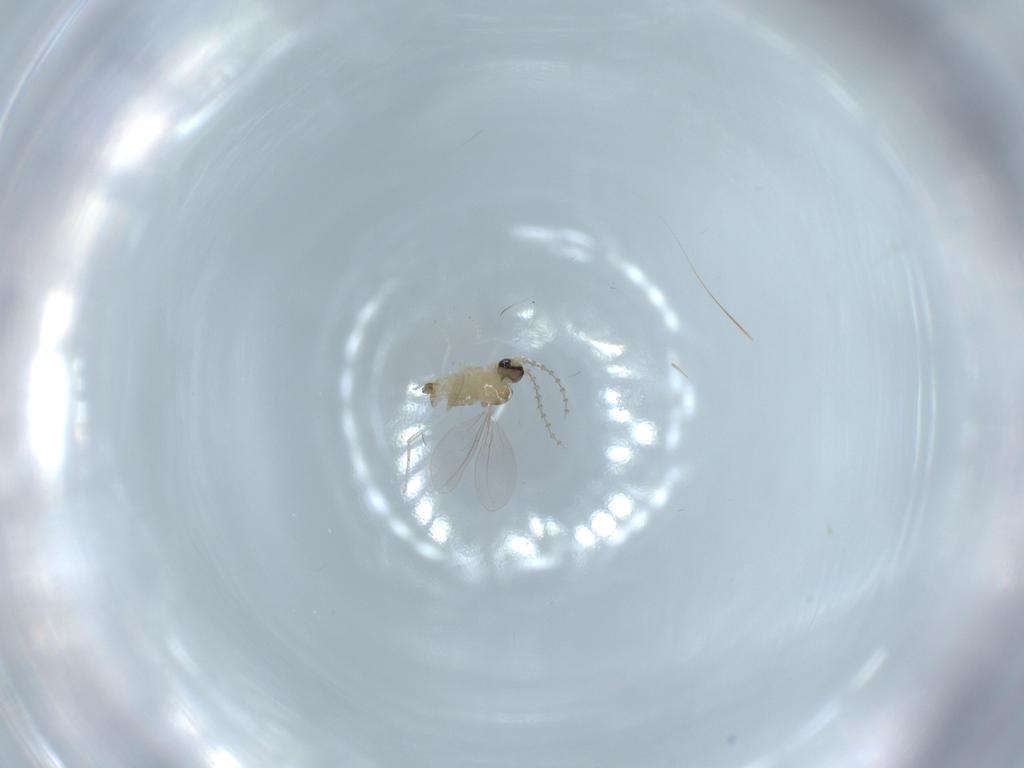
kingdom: Animalia
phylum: Arthropoda
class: Insecta
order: Diptera
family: Cecidomyiidae
